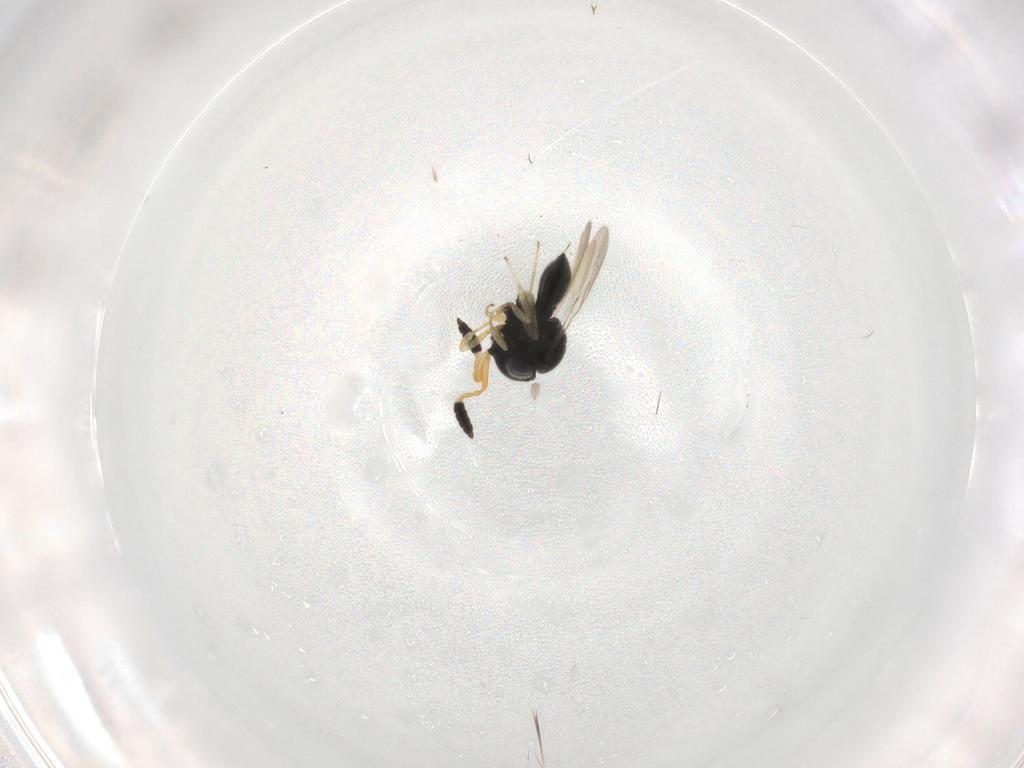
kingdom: Animalia
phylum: Arthropoda
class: Insecta
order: Hymenoptera
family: Scelionidae
